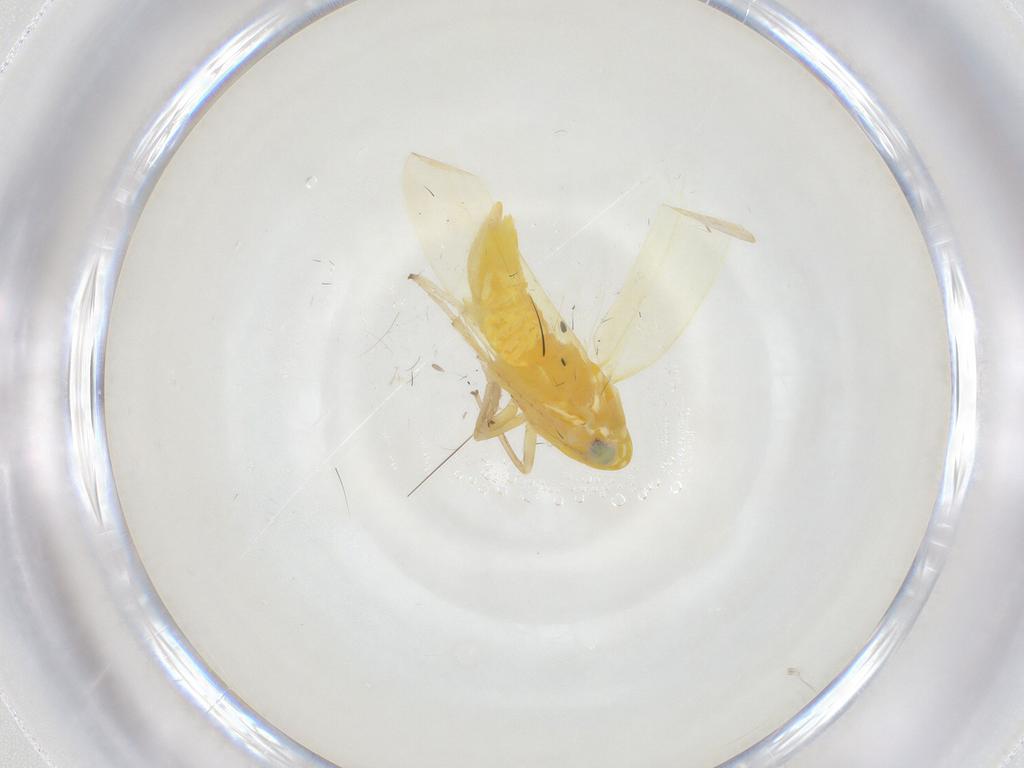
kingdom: Animalia
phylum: Arthropoda
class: Insecta
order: Hemiptera
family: Cicadellidae
